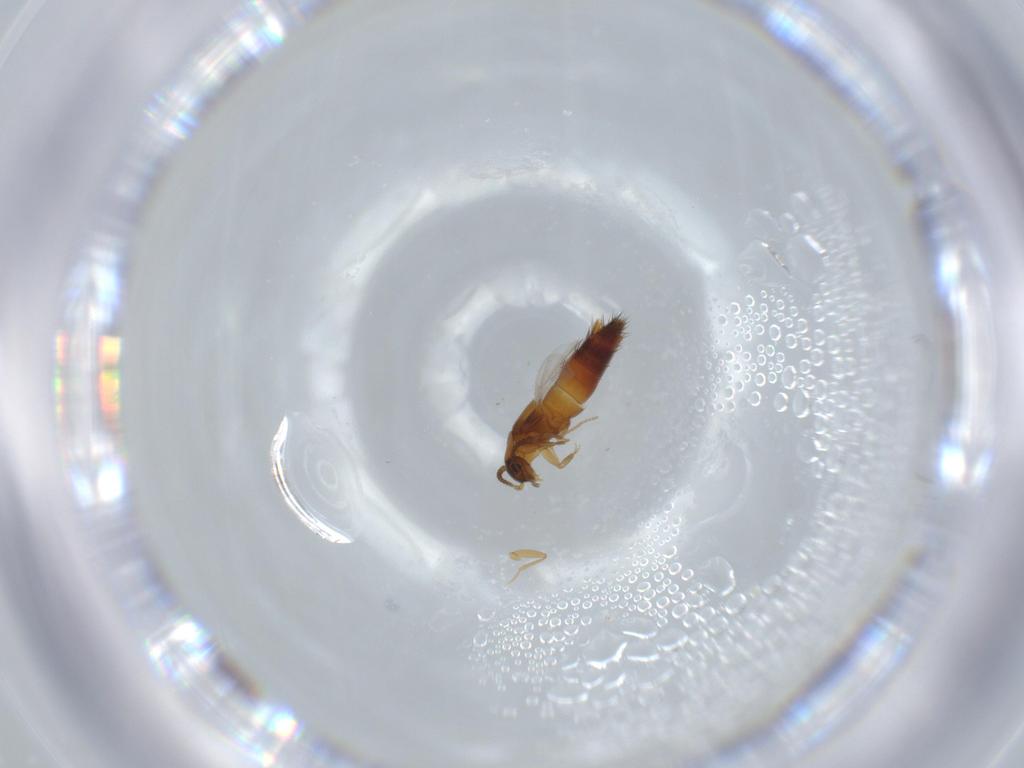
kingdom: Animalia
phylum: Arthropoda
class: Insecta
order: Coleoptera
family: Staphylinidae
